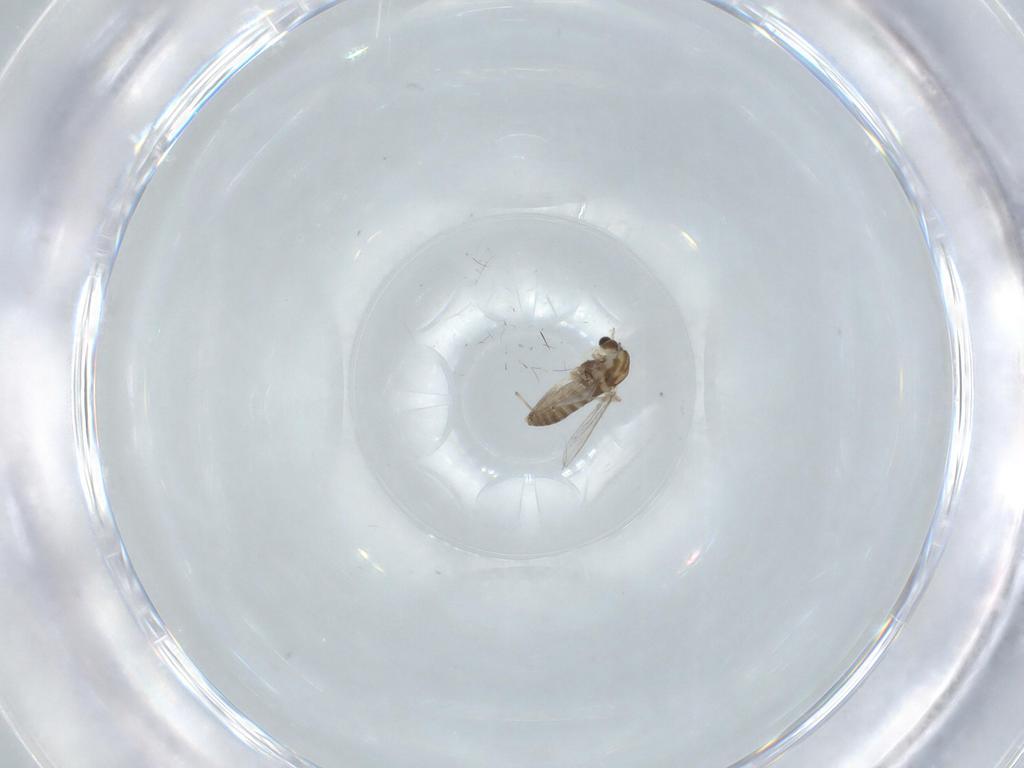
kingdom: Animalia
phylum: Arthropoda
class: Insecta
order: Diptera
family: Chironomidae
